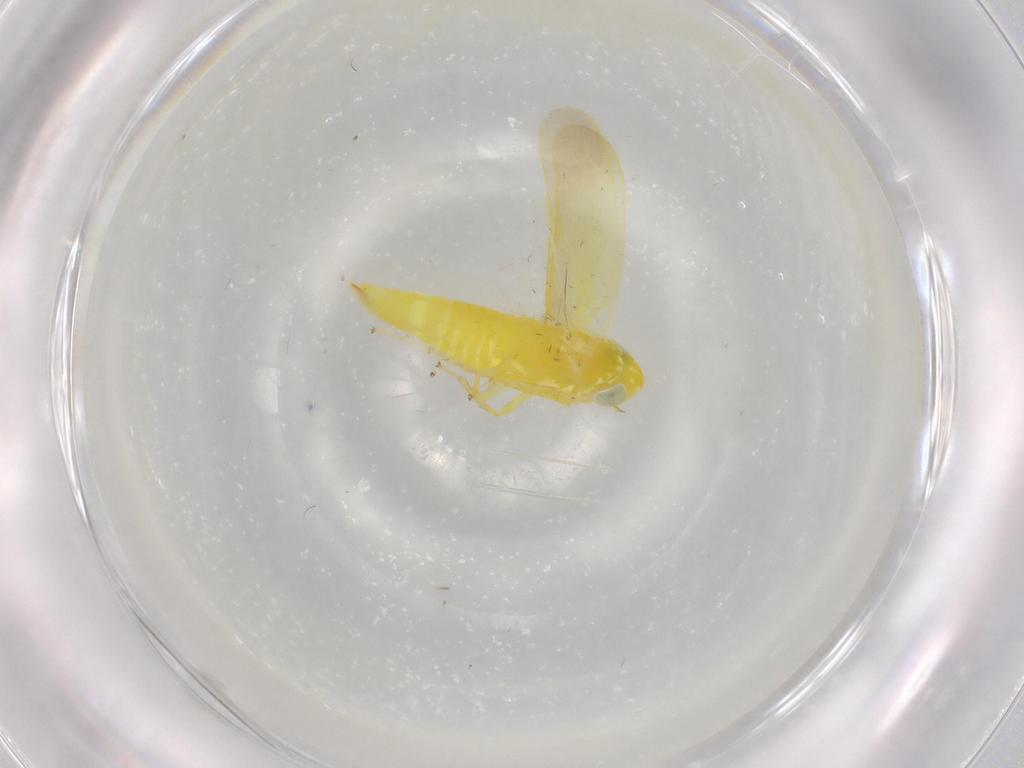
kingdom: Animalia
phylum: Arthropoda
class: Insecta
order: Hemiptera
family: Cicadellidae
